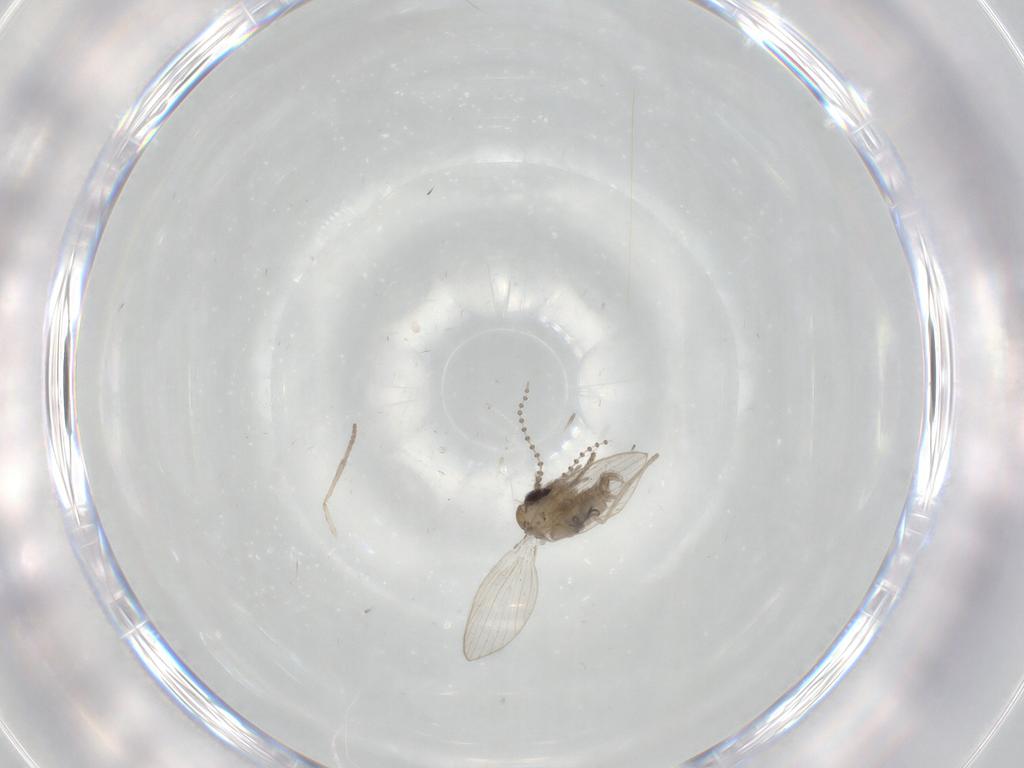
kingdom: Animalia
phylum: Arthropoda
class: Insecta
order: Diptera
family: Psychodidae
